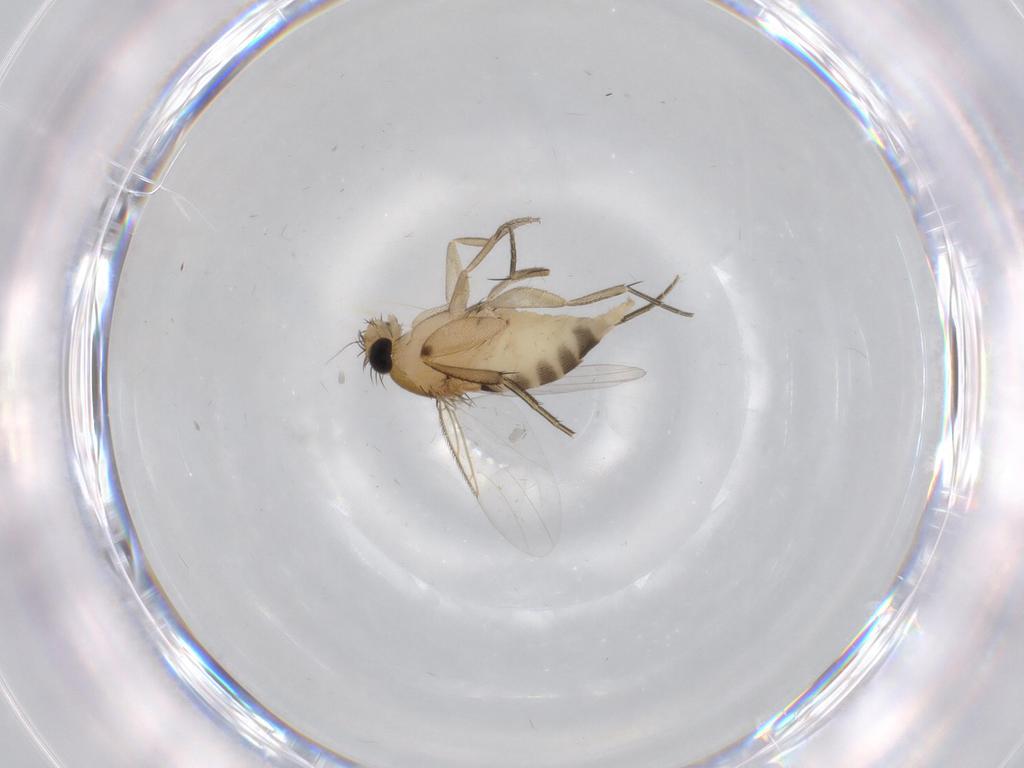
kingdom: Animalia
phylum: Arthropoda
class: Insecta
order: Diptera
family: Phoridae
